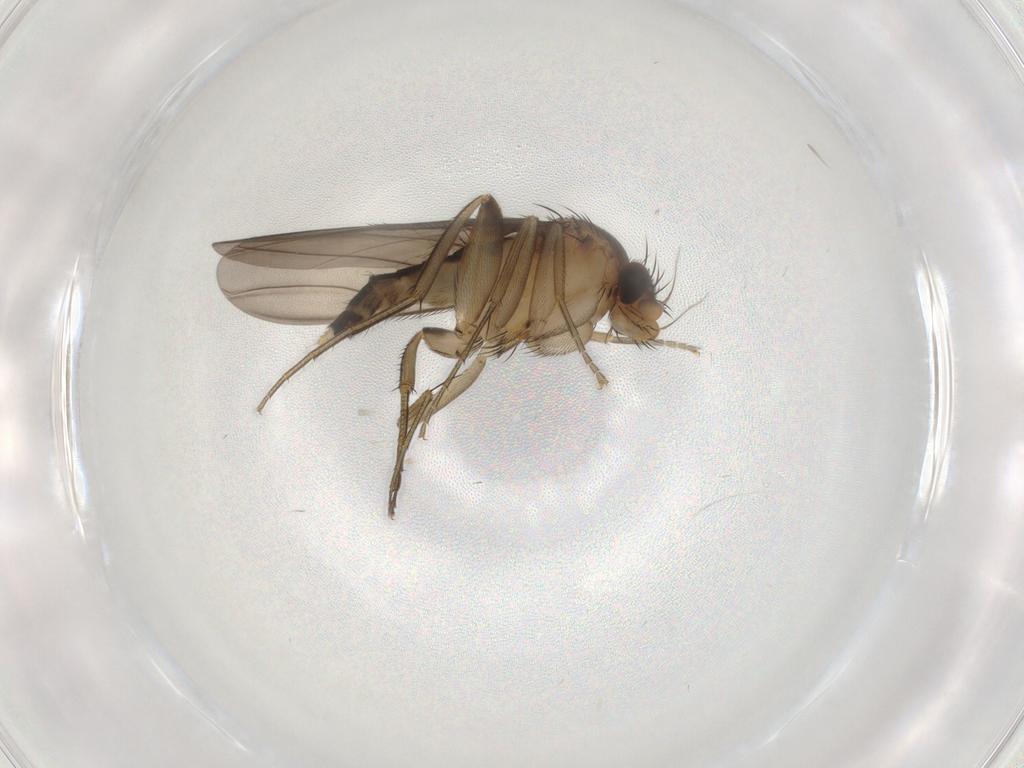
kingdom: Animalia
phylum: Arthropoda
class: Insecta
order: Diptera
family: Phoridae
